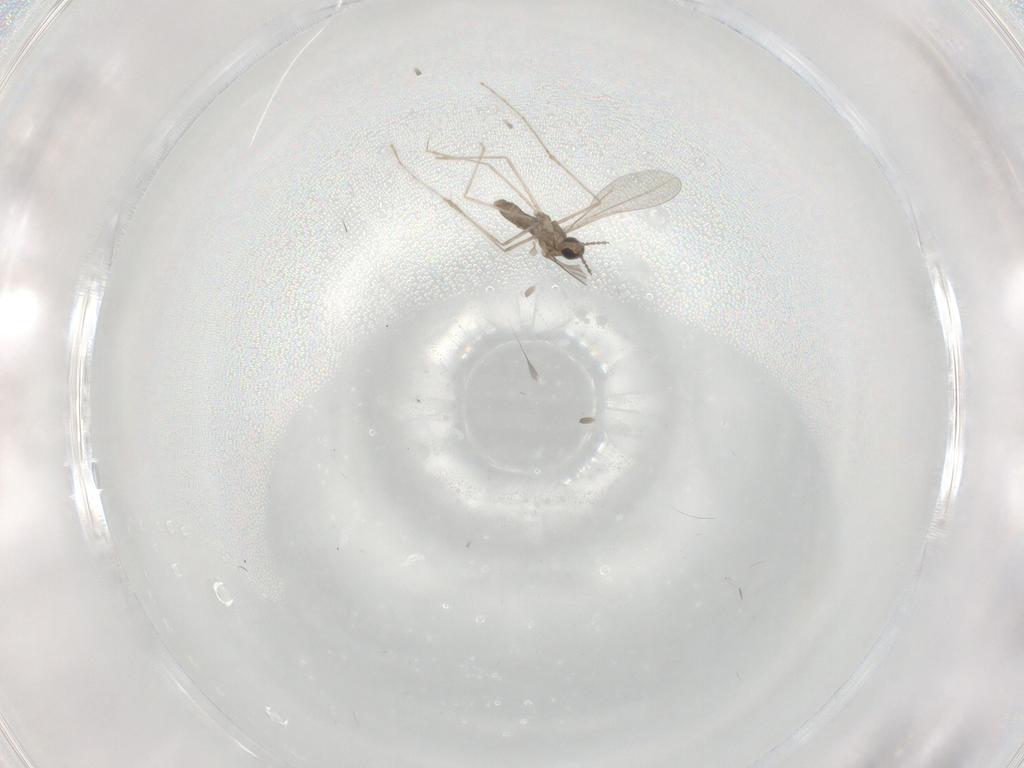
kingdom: Animalia
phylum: Arthropoda
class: Insecta
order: Diptera
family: Cecidomyiidae
